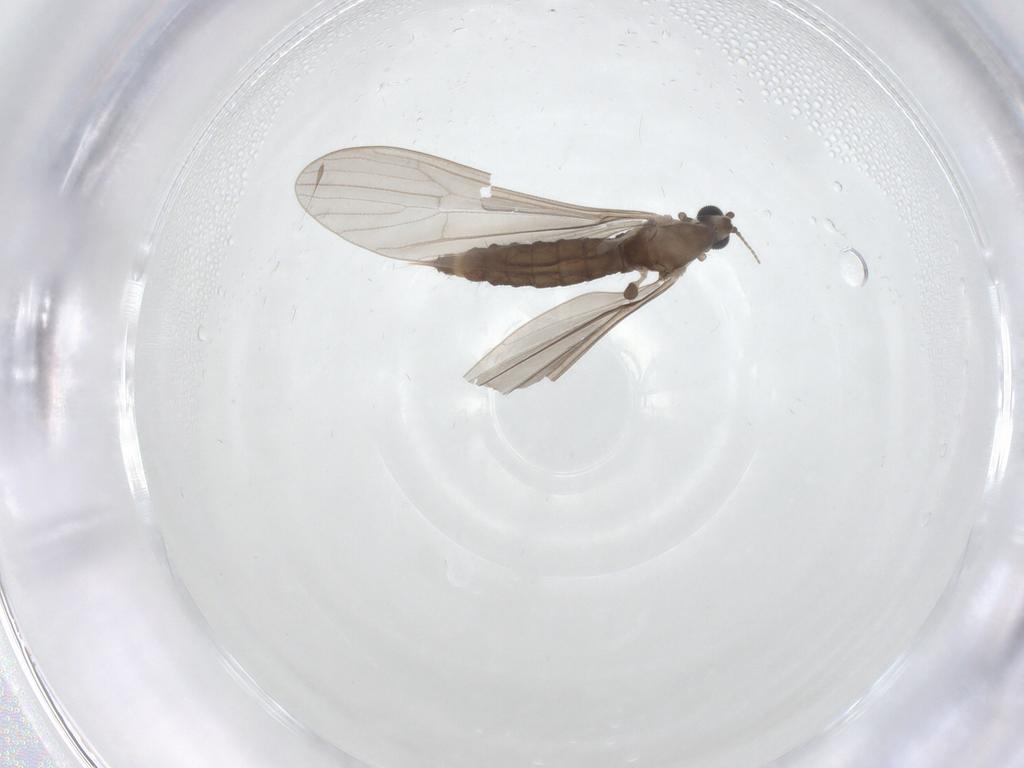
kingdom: Animalia
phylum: Arthropoda
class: Insecta
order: Diptera
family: Limoniidae
